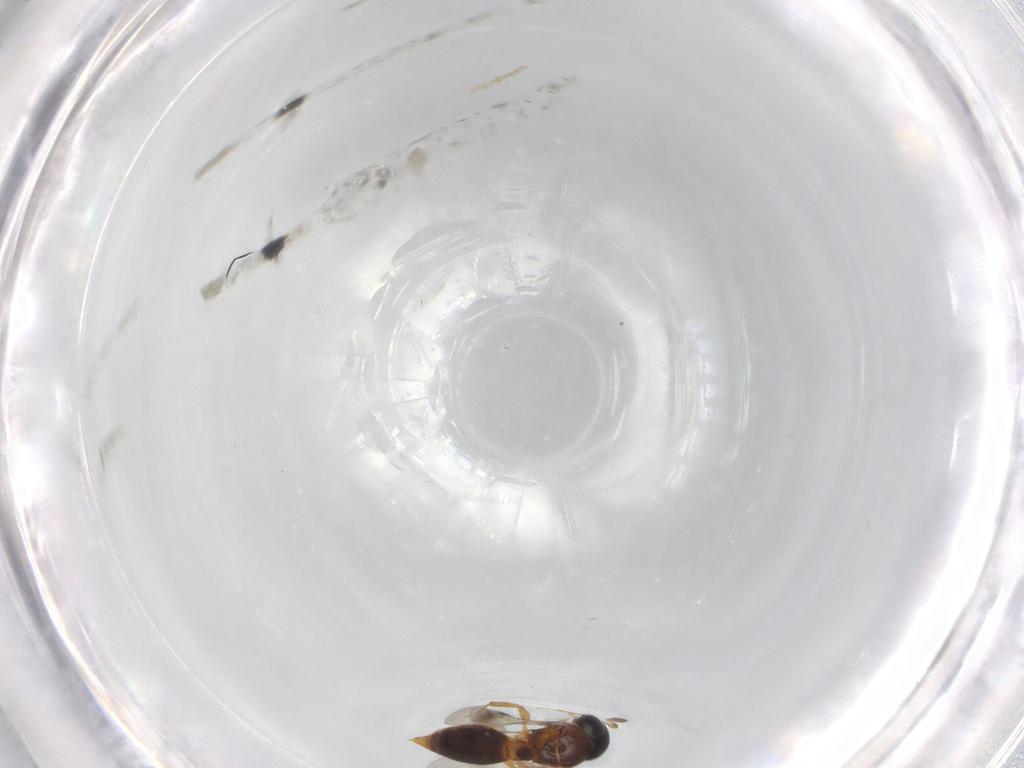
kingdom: Animalia
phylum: Arthropoda
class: Insecta
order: Hymenoptera
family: Scelionidae
